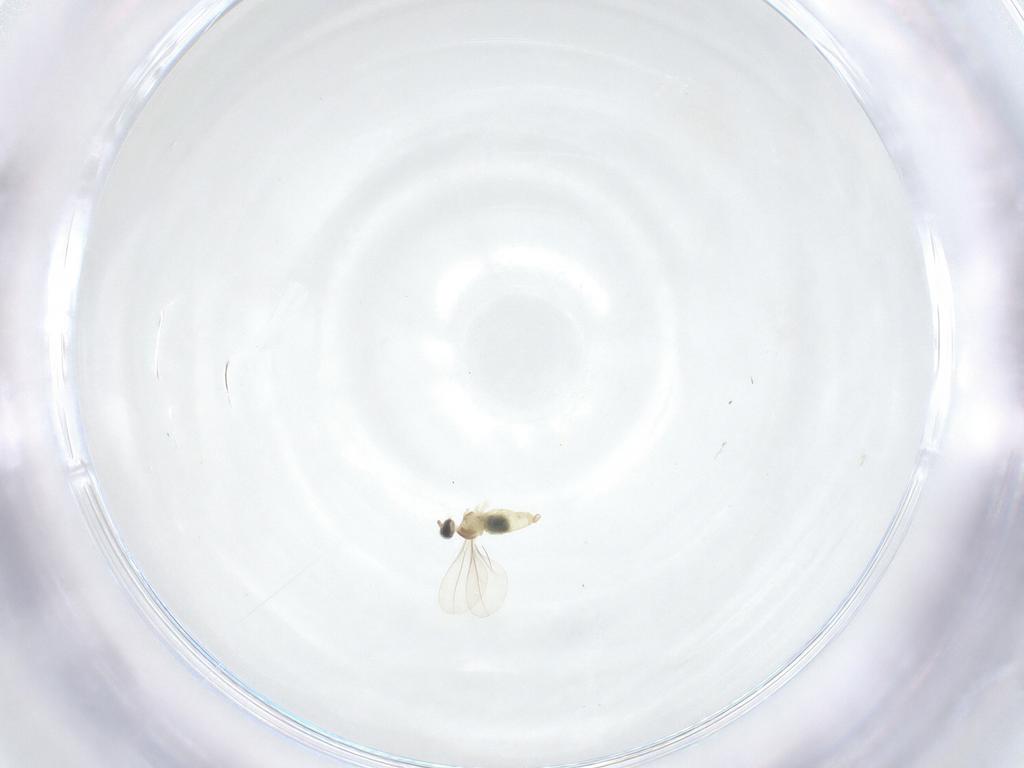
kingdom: Animalia
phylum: Arthropoda
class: Insecta
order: Diptera
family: Cecidomyiidae
